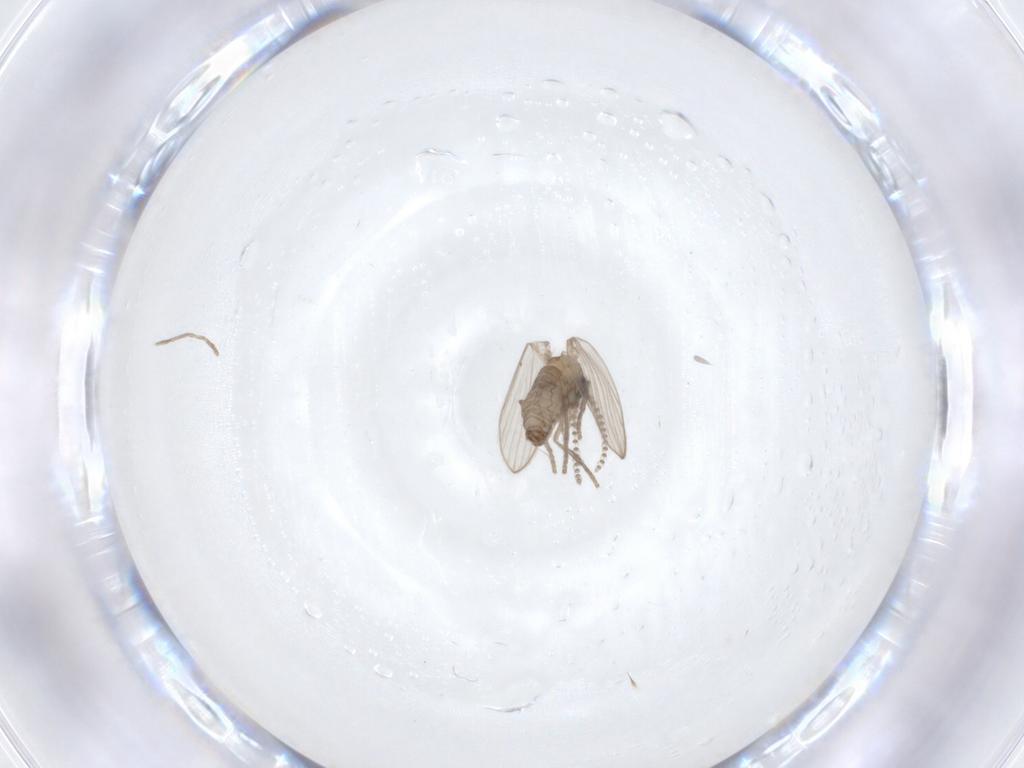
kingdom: Animalia
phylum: Arthropoda
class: Insecta
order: Diptera
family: Psychodidae
